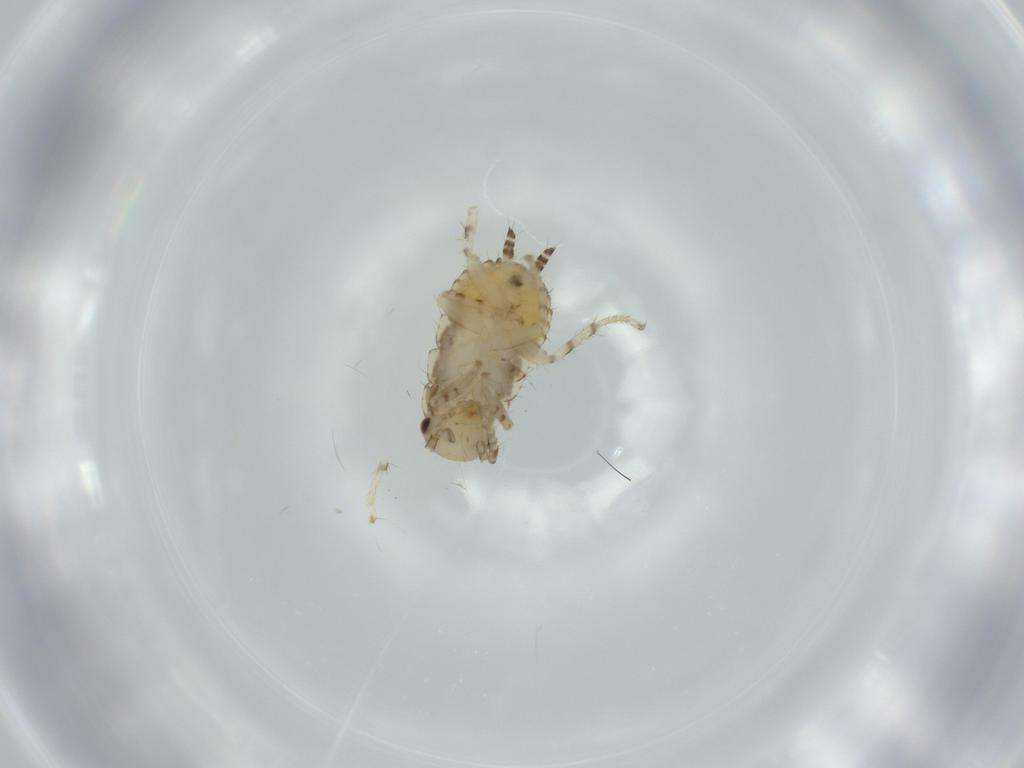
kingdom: Animalia
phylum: Arthropoda
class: Insecta
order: Blattodea
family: Ectobiidae
